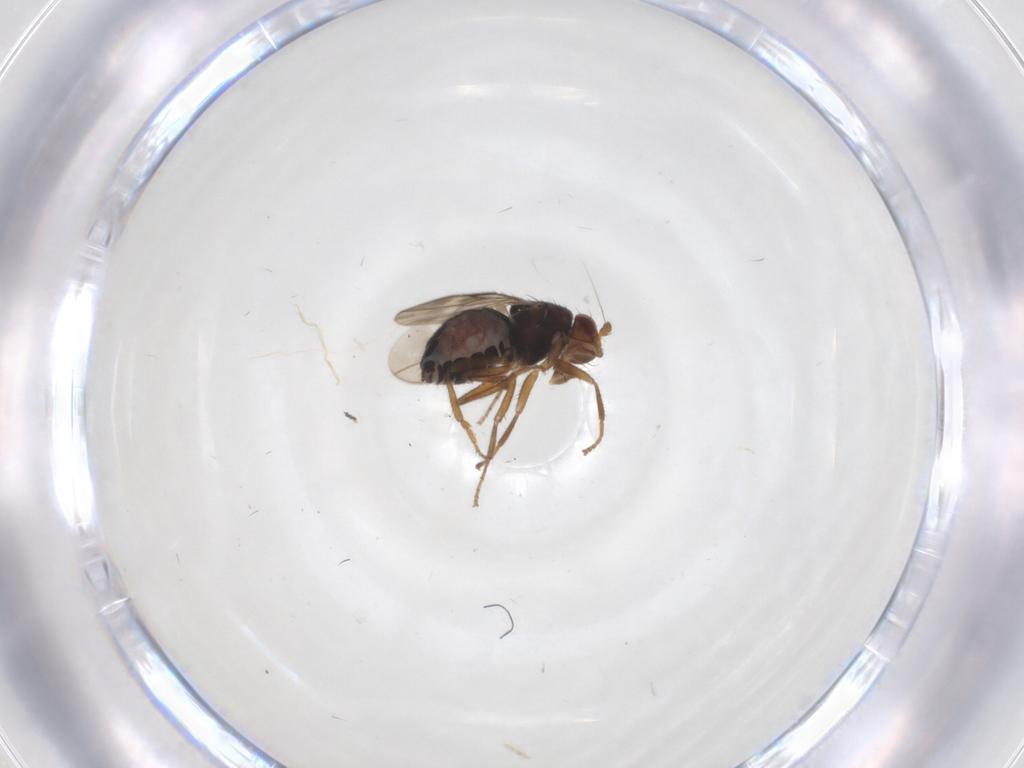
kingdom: Animalia
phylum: Arthropoda
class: Insecta
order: Diptera
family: Sphaeroceridae
